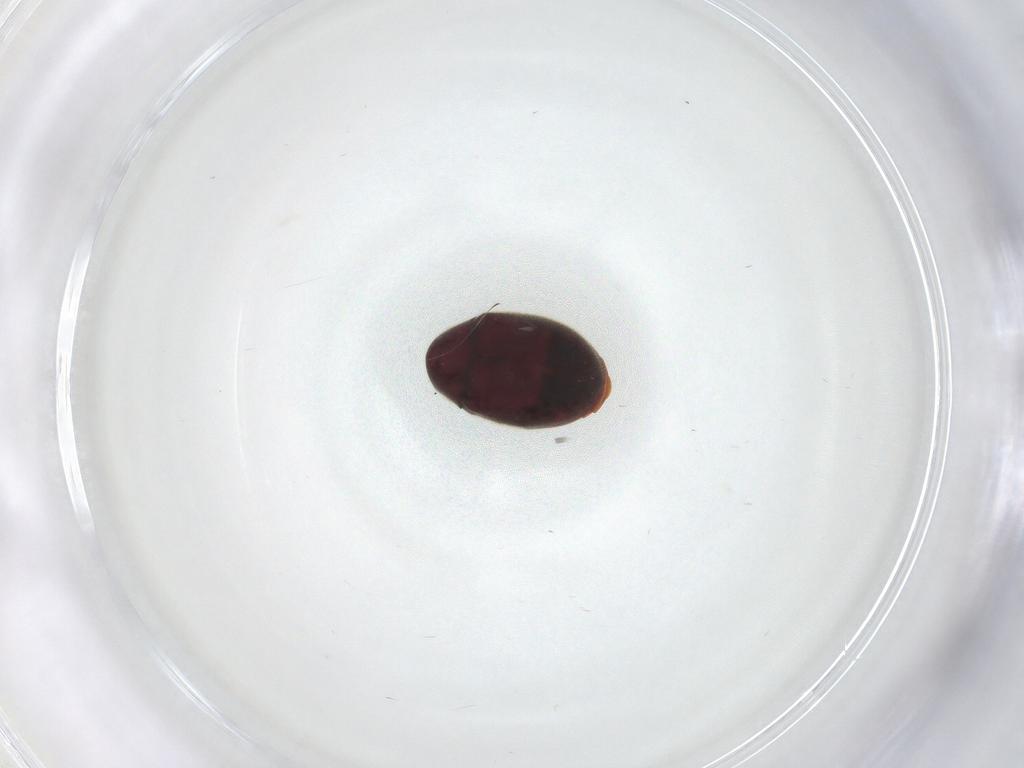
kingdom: Animalia
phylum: Arthropoda
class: Insecta
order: Coleoptera
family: Ptinidae
